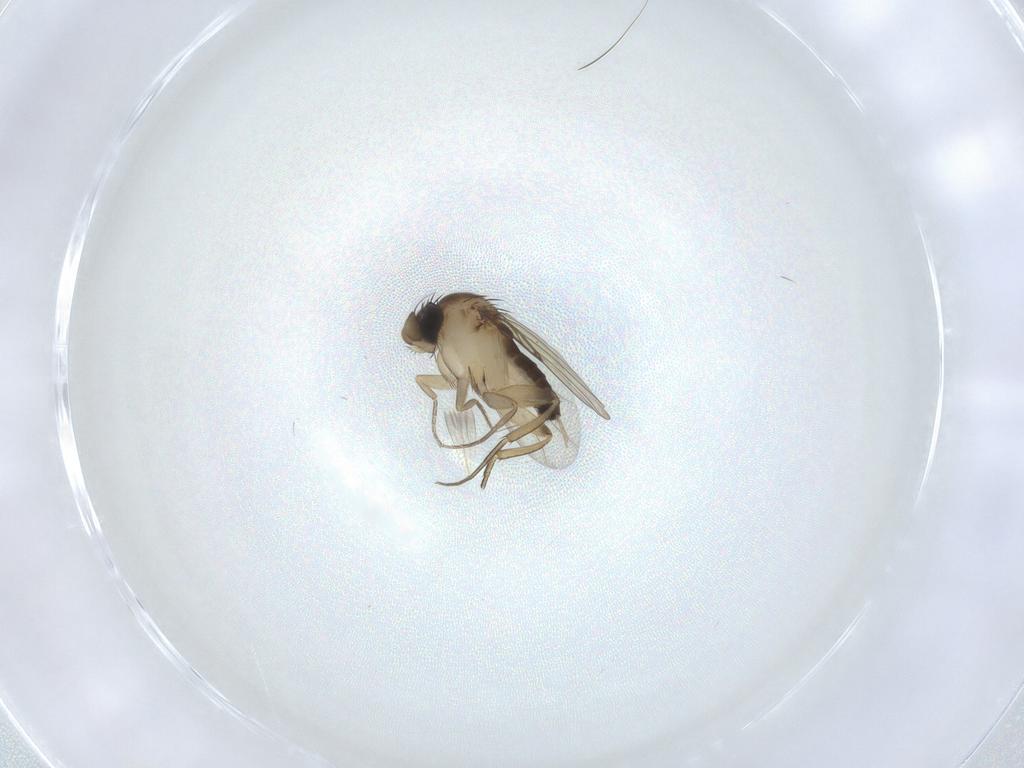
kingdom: Animalia
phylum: Arthropoda
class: Insecta
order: Diptera
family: Phoridae
